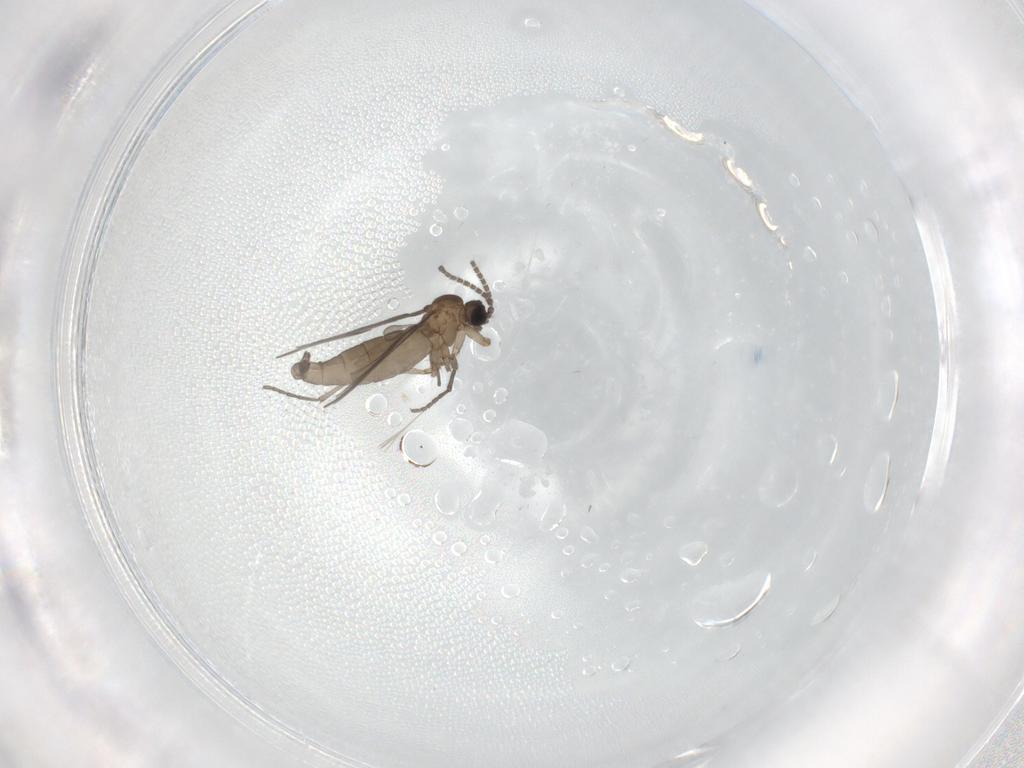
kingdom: Animalia
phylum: Arthropoda
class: Insecta
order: Diptera
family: Sciaridae
